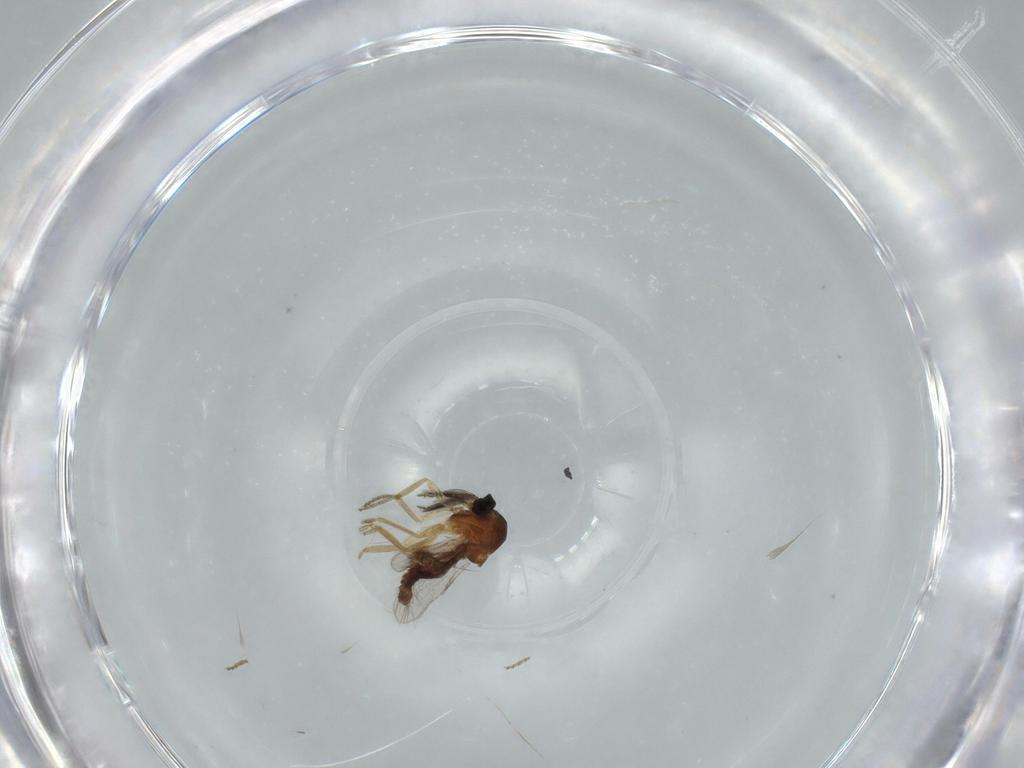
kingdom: Animalia
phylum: Arthropoda
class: Insecta
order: Diptera
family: Ceratopogonidae
